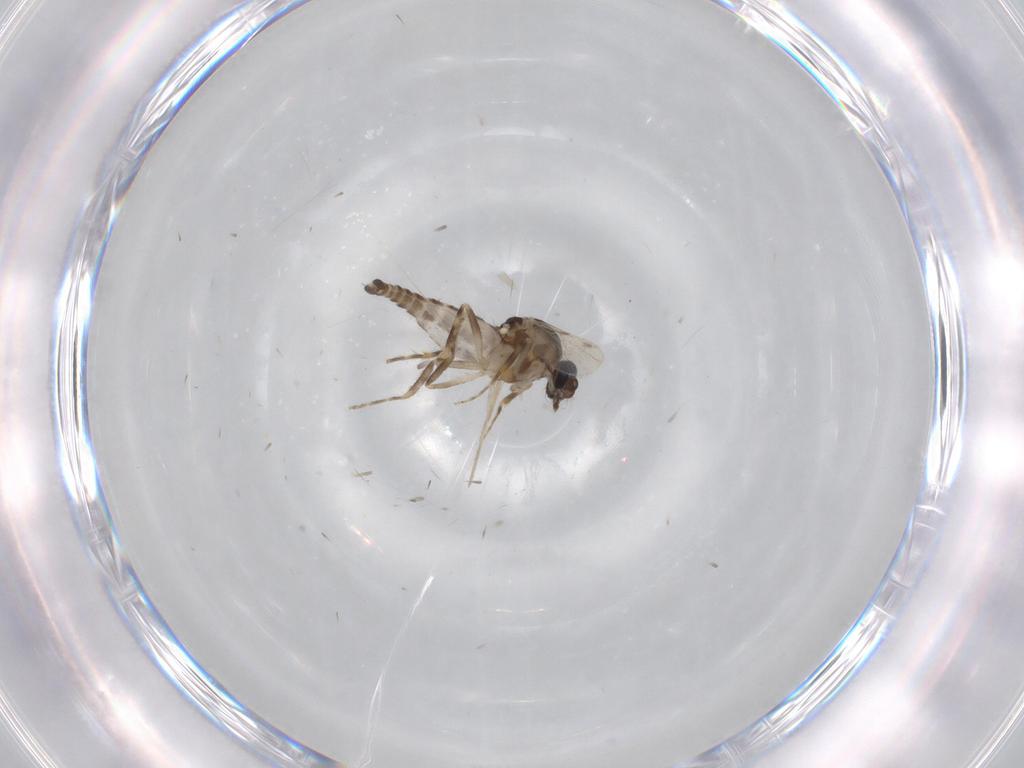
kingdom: Animalia
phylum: Arthropoda
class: Insecta
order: Diptera
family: Ceratopogonidae
